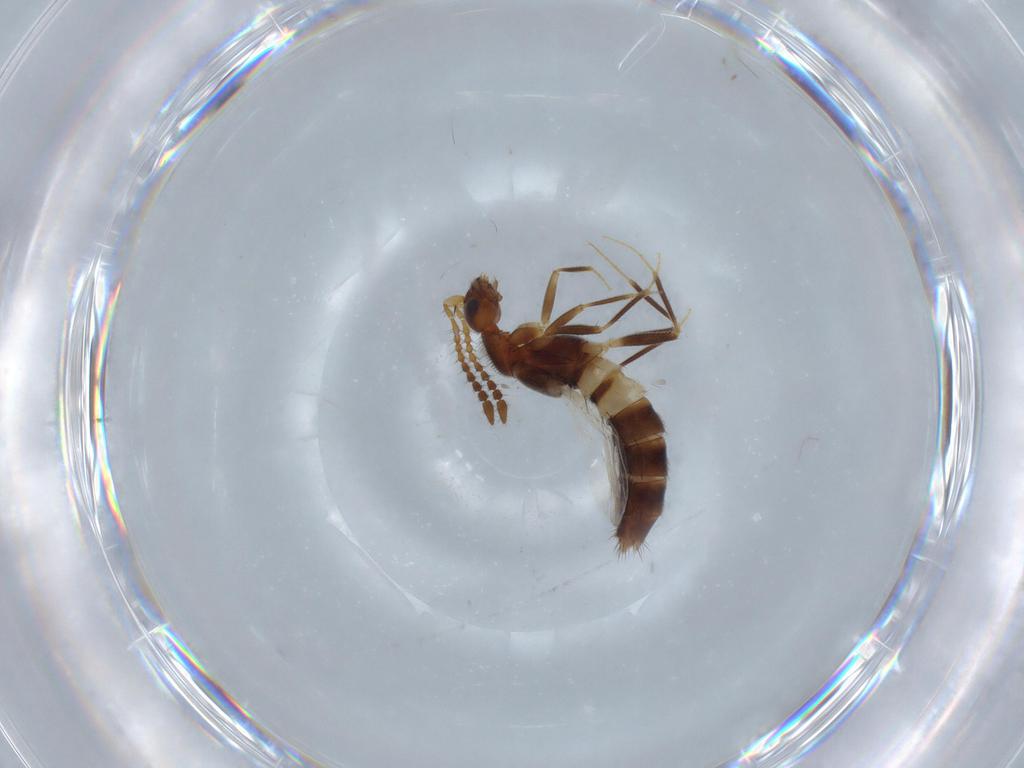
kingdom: Animalia
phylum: Arthropoda
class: Insecta
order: Coleoptera
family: Staphylinidae
